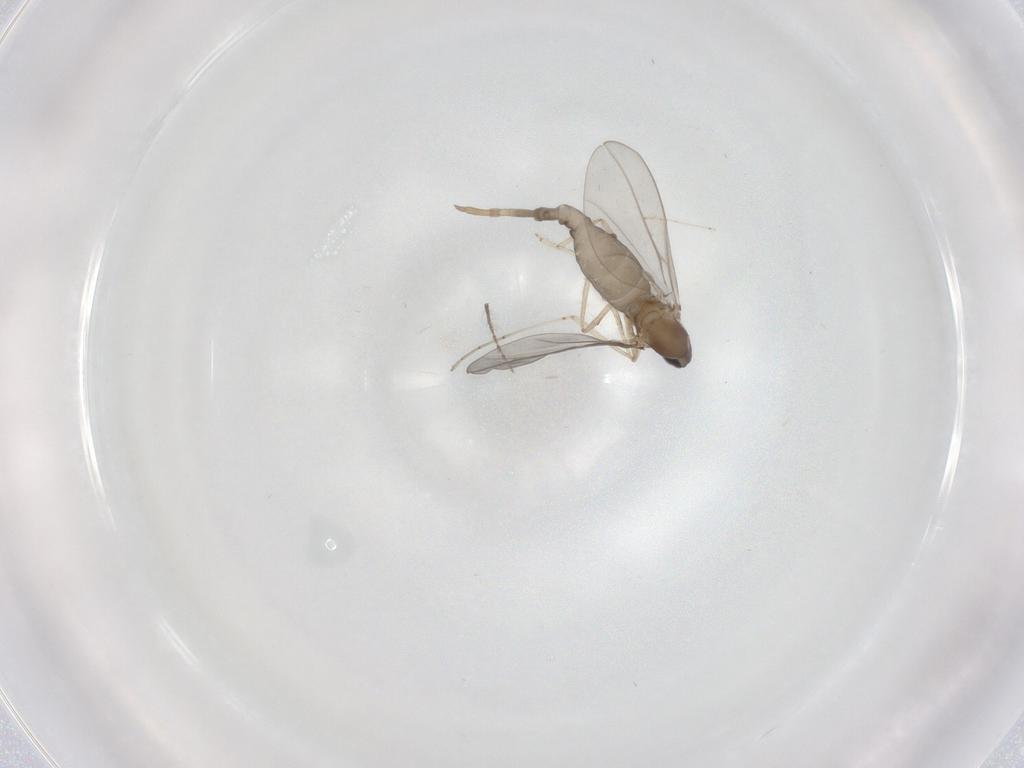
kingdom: Animalia
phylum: Arthropoda
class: Insecta
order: Diptera
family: Cecidomyiidae
